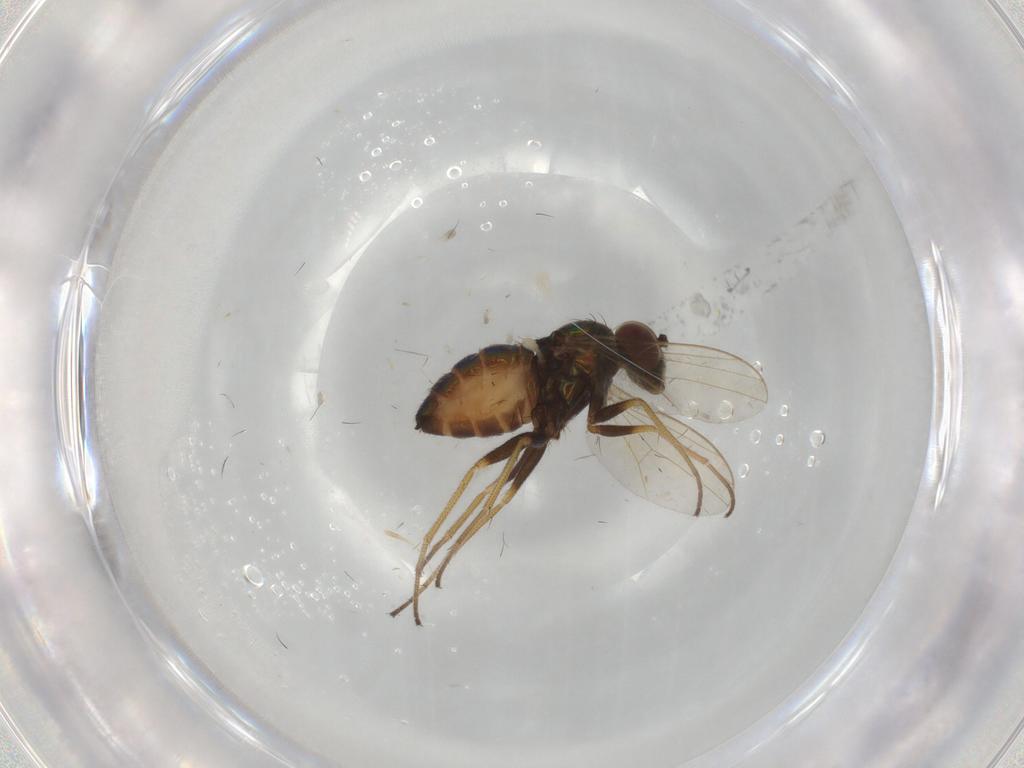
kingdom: Animalia
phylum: Arthropoda
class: Insecta
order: Diptera
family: Dolichopodidae
